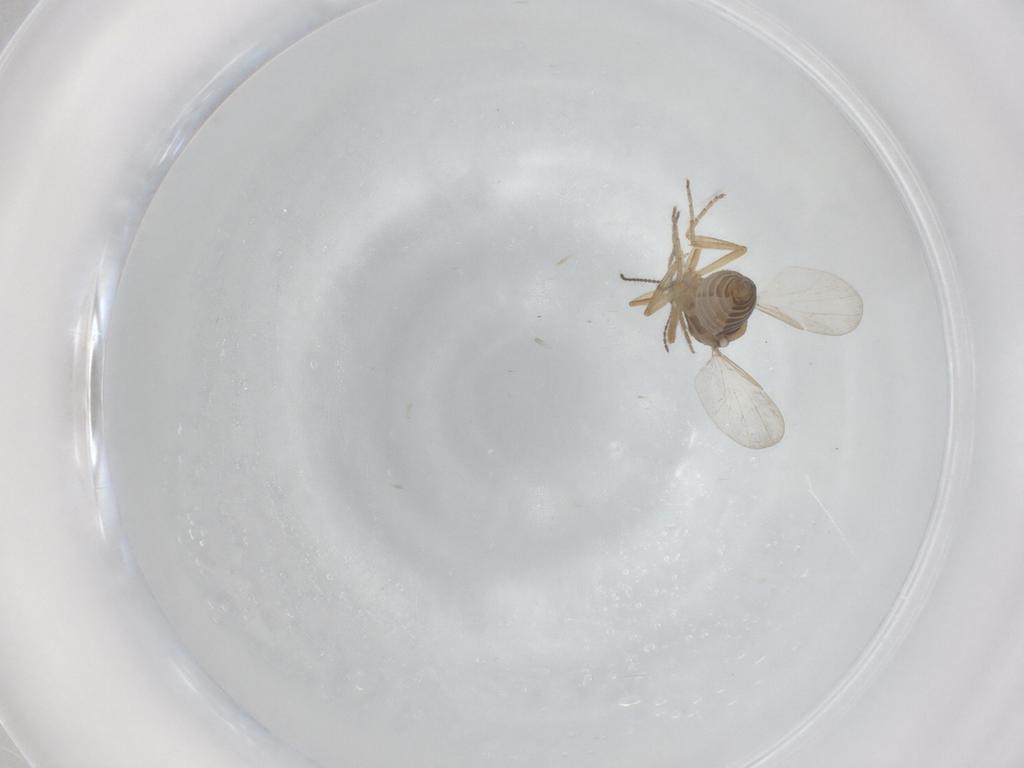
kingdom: Animalia
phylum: Arthropoda
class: Insecta
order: Diptera
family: Ceratopogonidae
